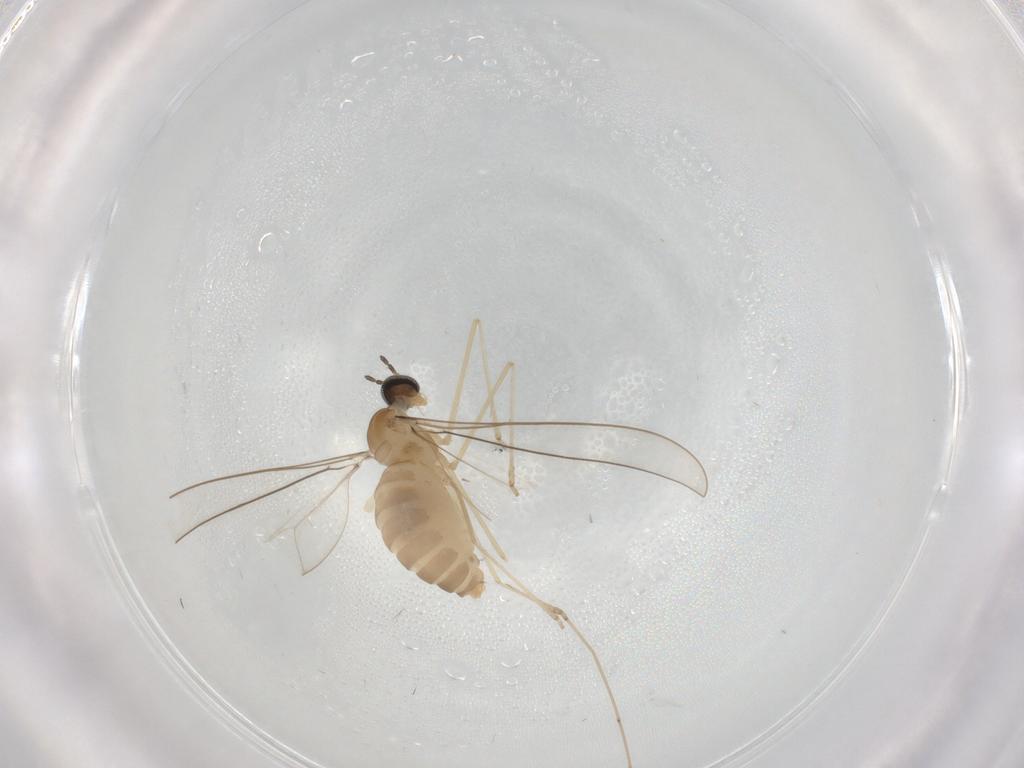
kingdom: Animalia
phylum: Arthropoda
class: Insecta
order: Diptera
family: Cecidomyiidae
